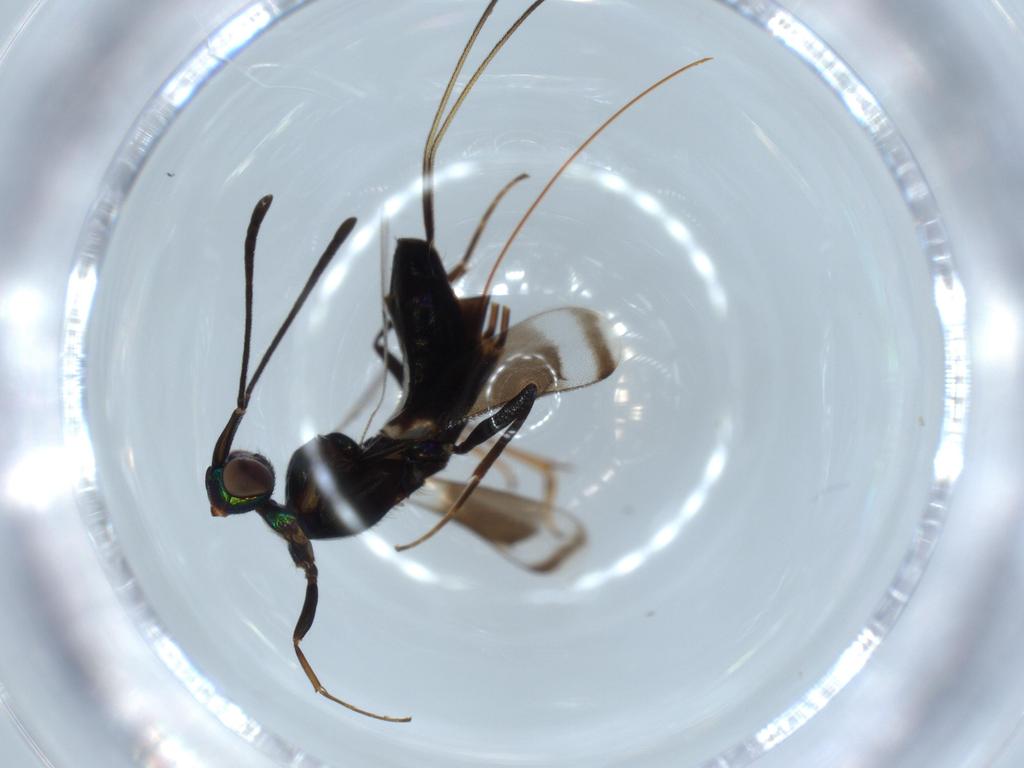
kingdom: Animalia
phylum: Arthropoda
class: Insecta
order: Hymenoptera
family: Eupelmidae
